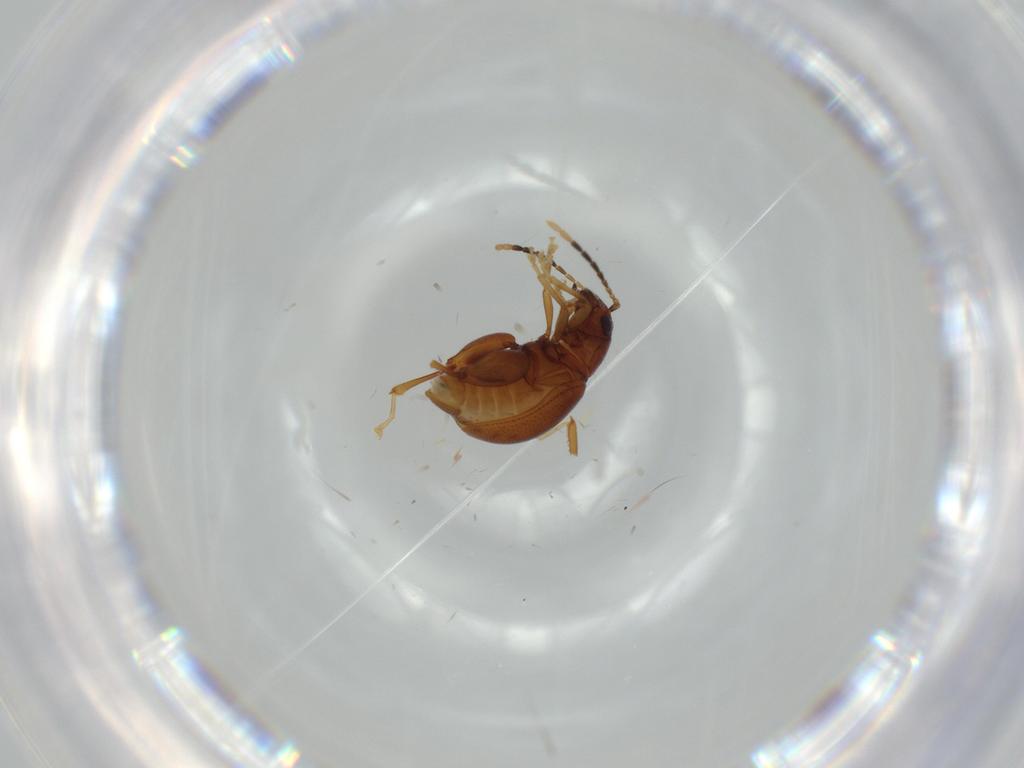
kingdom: Animalia
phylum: Arthropoda
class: Insecta
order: Coleoptera
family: Chrysomelidae
